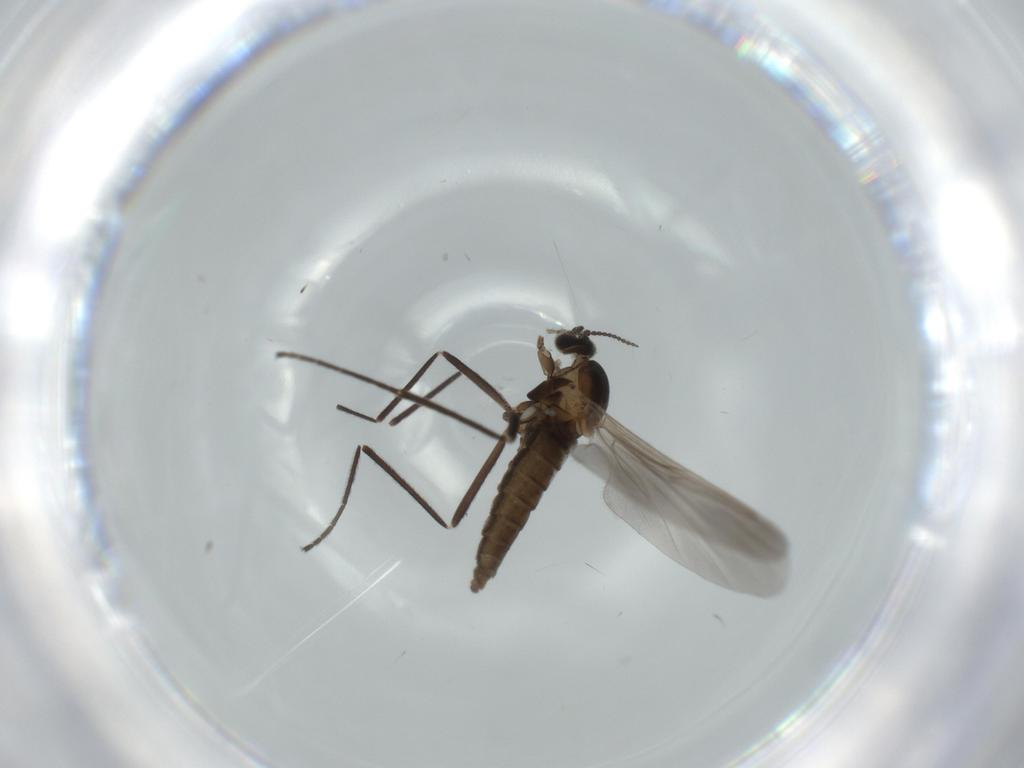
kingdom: Animalia
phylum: Arthropoda
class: Insecta
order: Diptera
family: Cecidomyiidae
